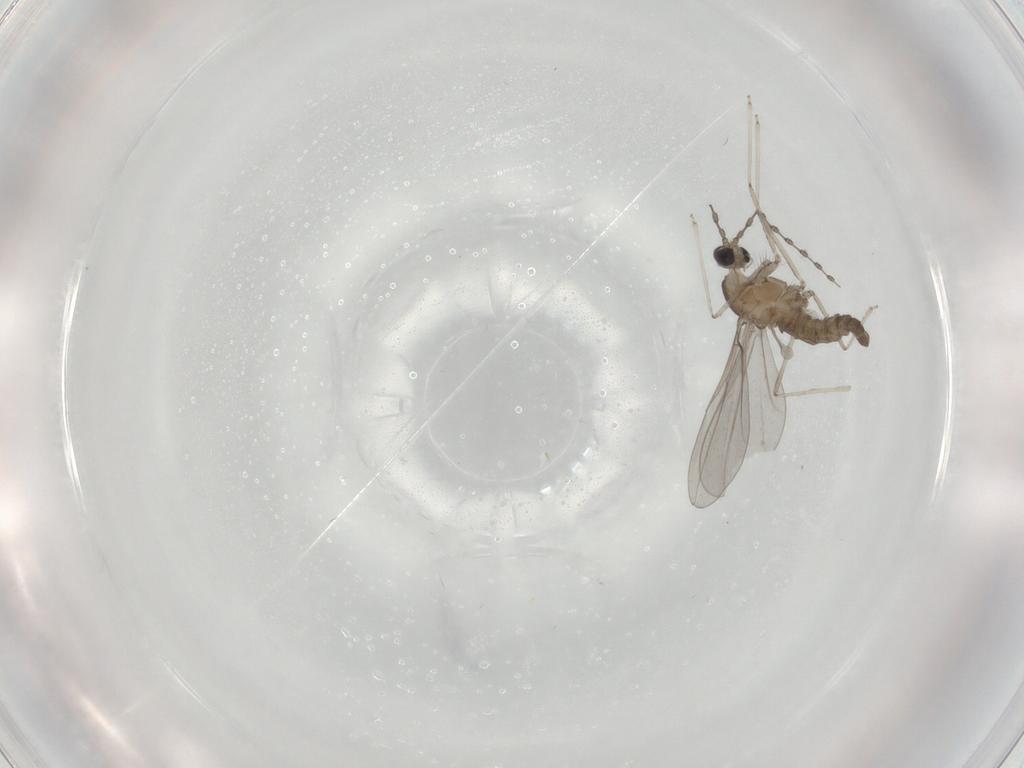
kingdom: Animalia
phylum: Arthropoda
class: Insecta
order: Diptera
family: Cecidomyiidae
